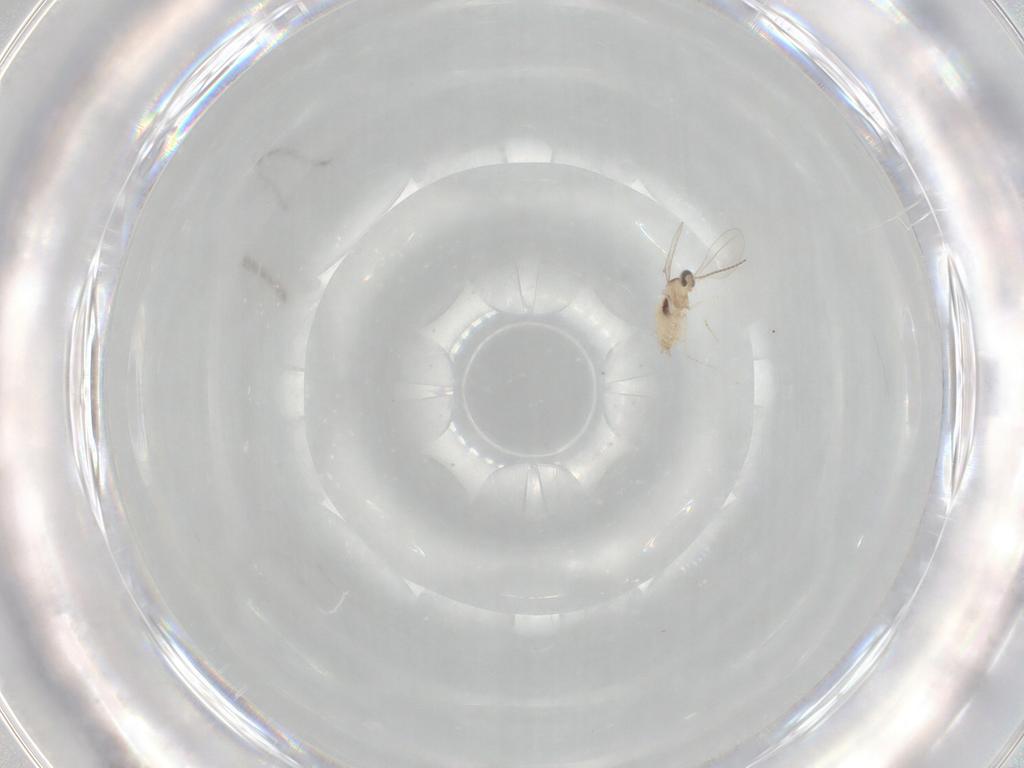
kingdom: Animalia
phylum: Arthropoda
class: Insecta
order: Diptera
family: Cecidomyiidae
